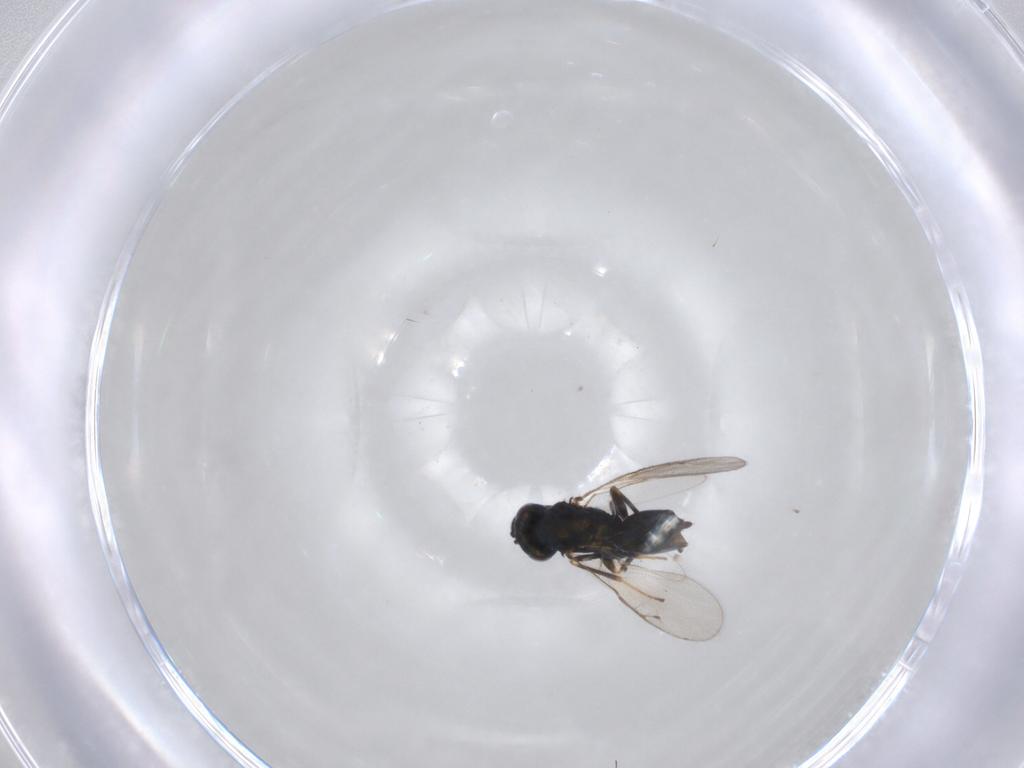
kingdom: Animalia
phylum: Arthropoda
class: Insecta
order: Hymenoptera
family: Pteromalidae
